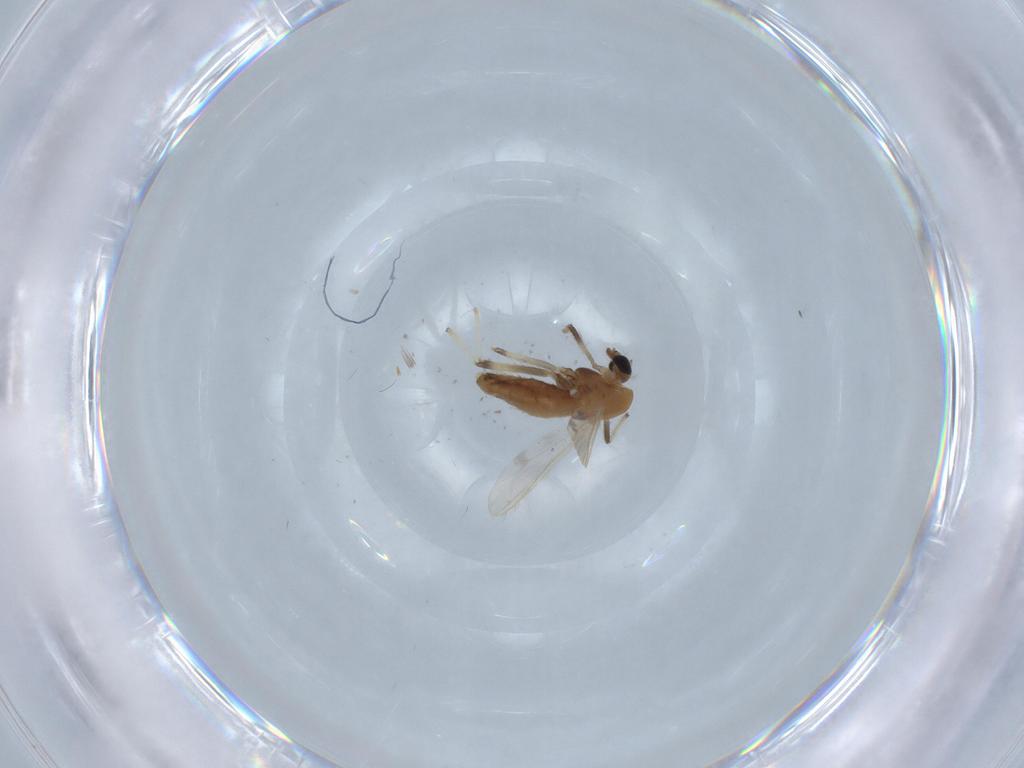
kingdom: Animalia
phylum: Arthropoda
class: Insecta
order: Diptera
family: Chironomidae
